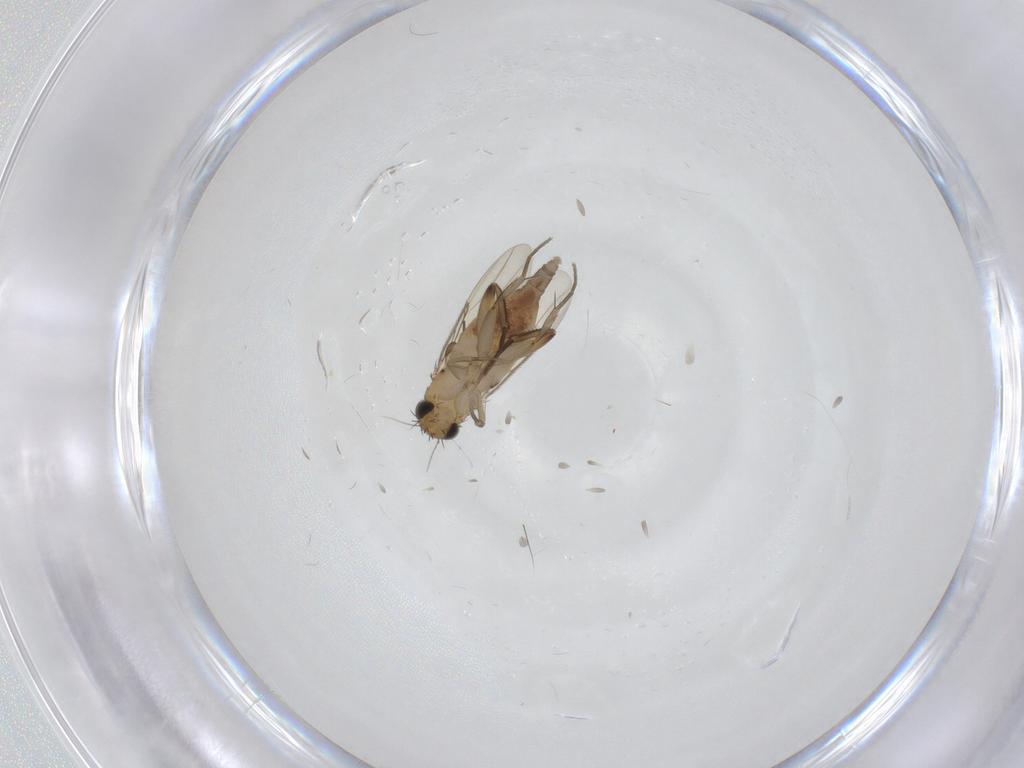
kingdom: Animalia
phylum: Arthropoda
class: Insecta
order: Diptera
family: Phoridae
